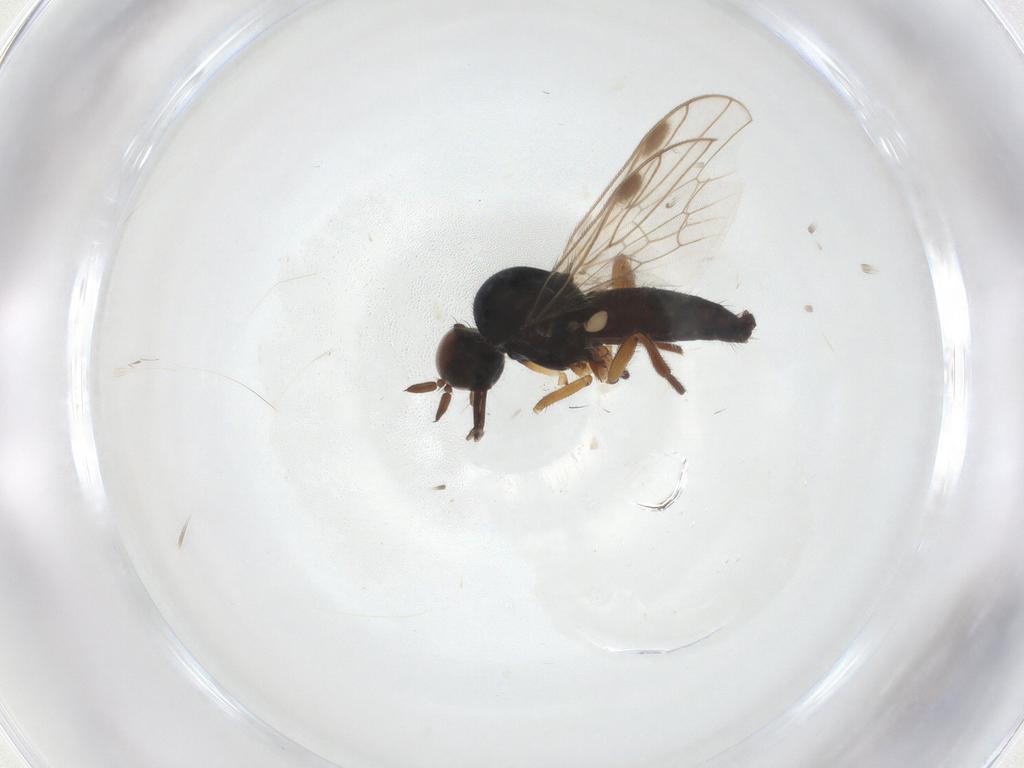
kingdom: Animalia
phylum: Arthropoda
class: Insecta
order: Diptera
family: Hybotidae
